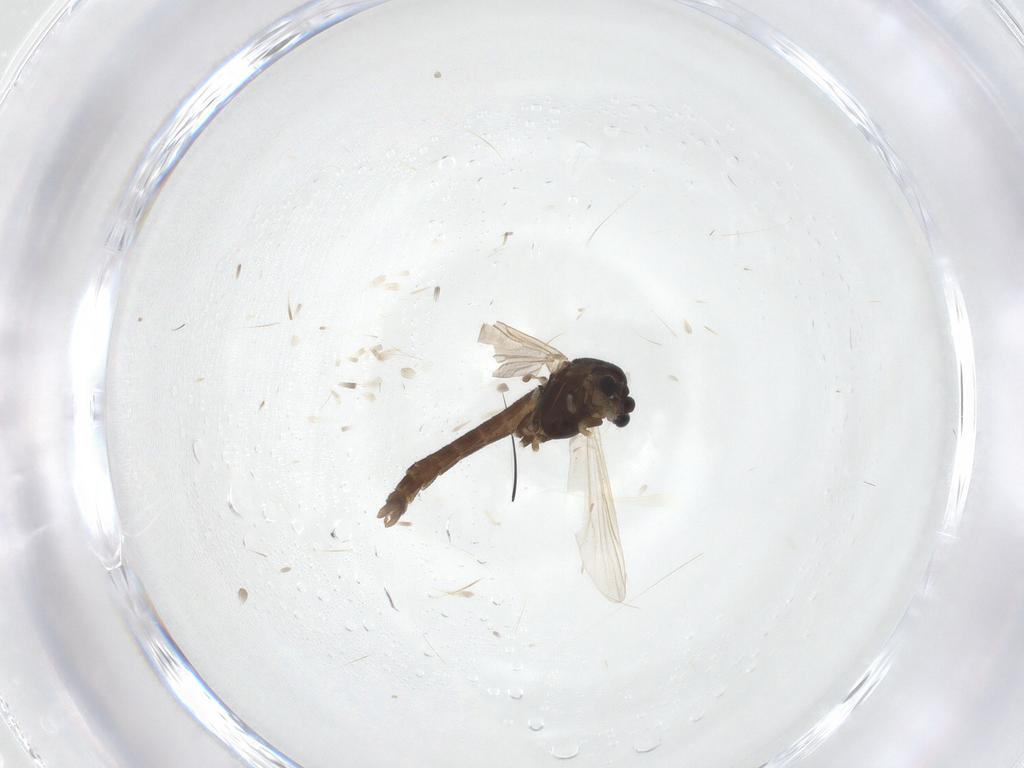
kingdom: Animalia
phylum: Arthropoda
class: Insecta
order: Diptera
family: Chironomidae
